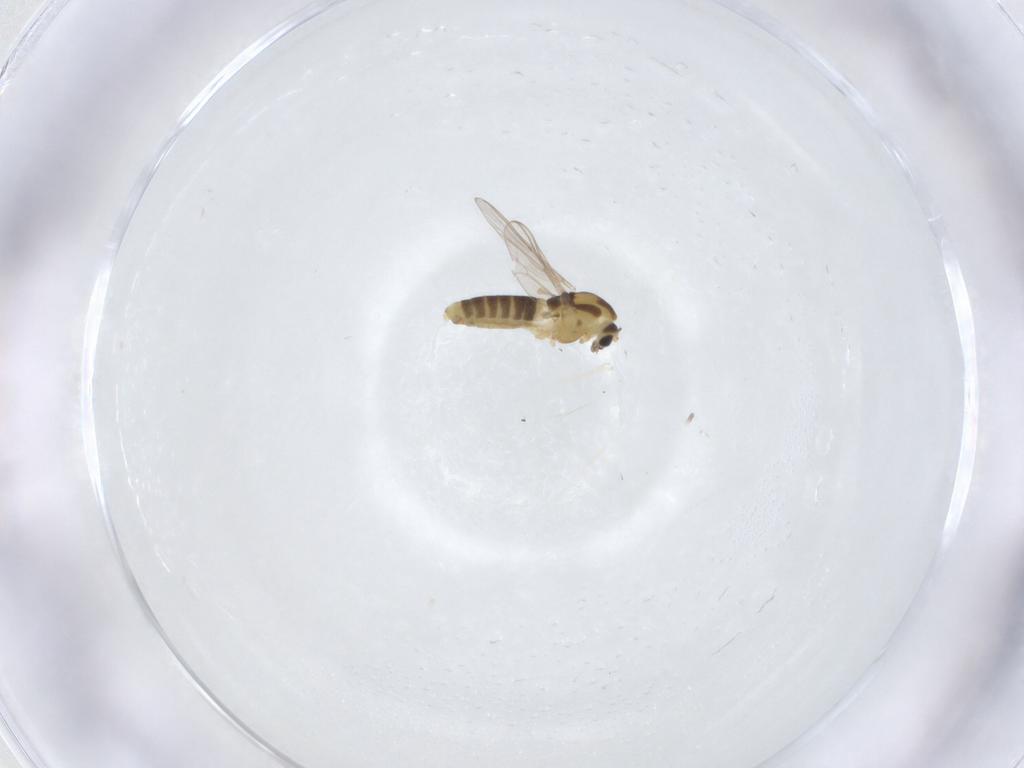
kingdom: Animalia
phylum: Arthropoda
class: Insecta
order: Diptera
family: Chironomidae
